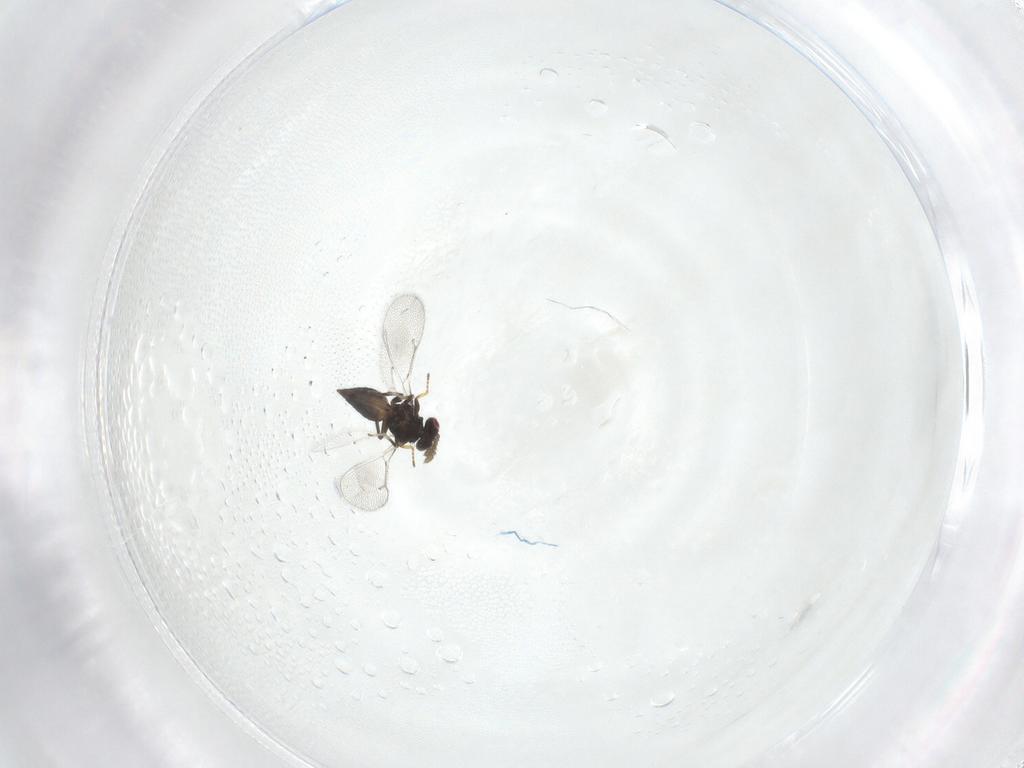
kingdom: Animalia
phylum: Arthropoda
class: Insecta
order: Hymenoptera
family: Eulophidae
